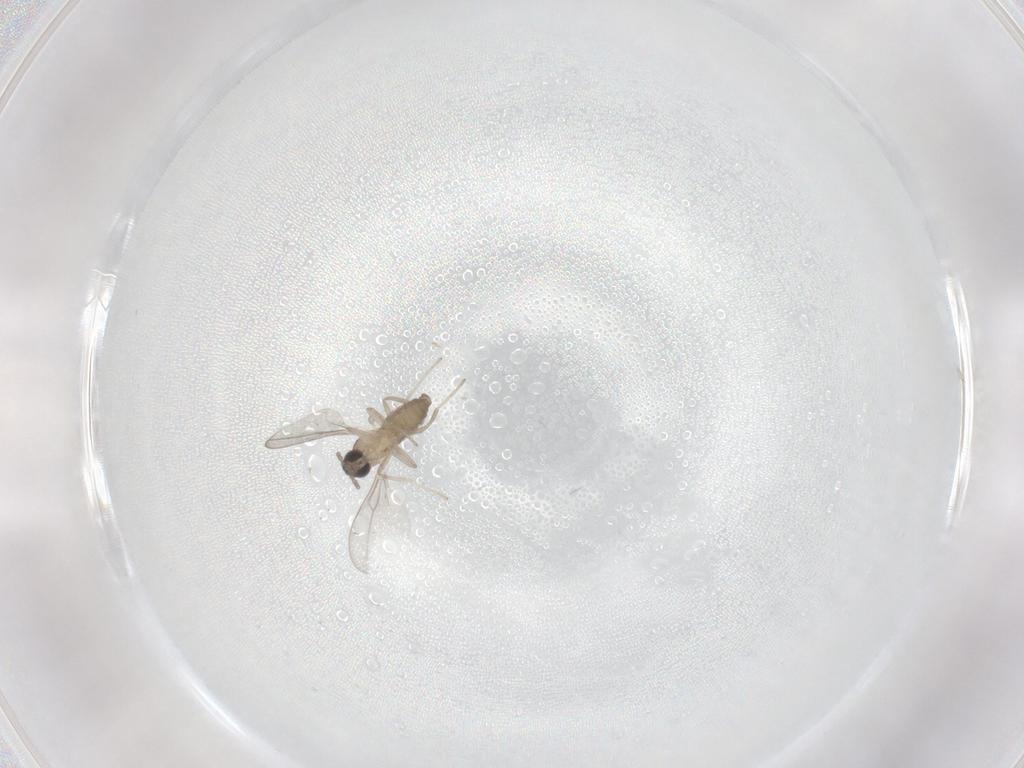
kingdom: Animalia
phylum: Arthropoda
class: Insecta
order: Diptera
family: Cecidomyiidae
